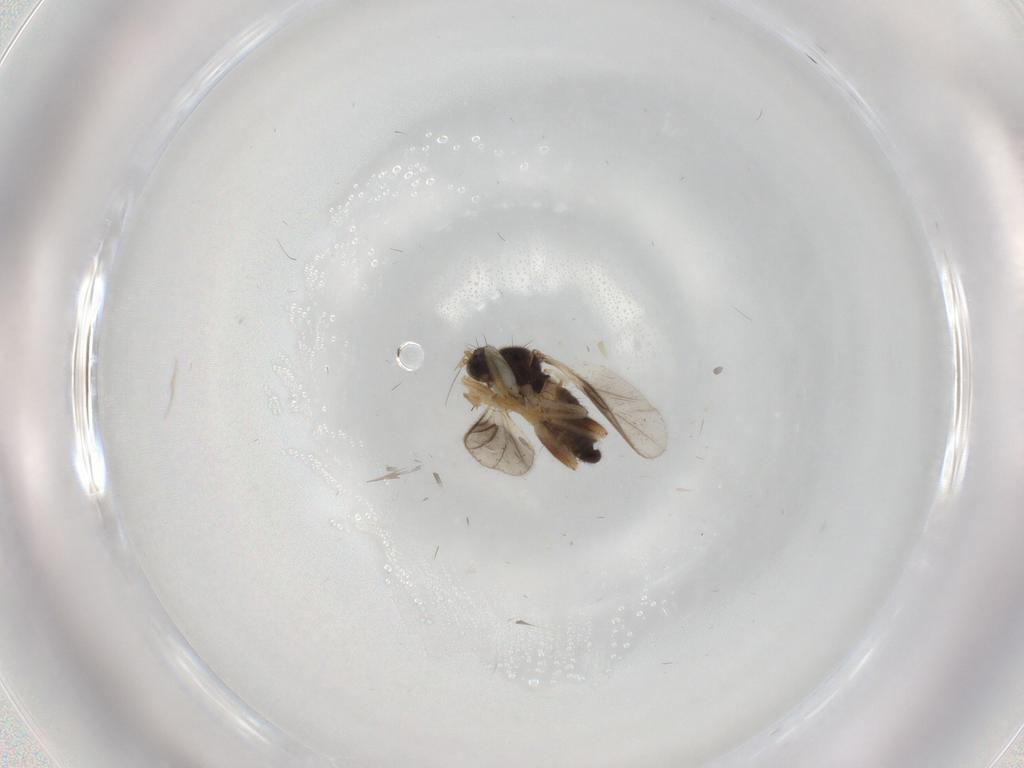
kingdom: Animalia
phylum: Arthropoda
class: Insecta
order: Diptera
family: Hybotidae
